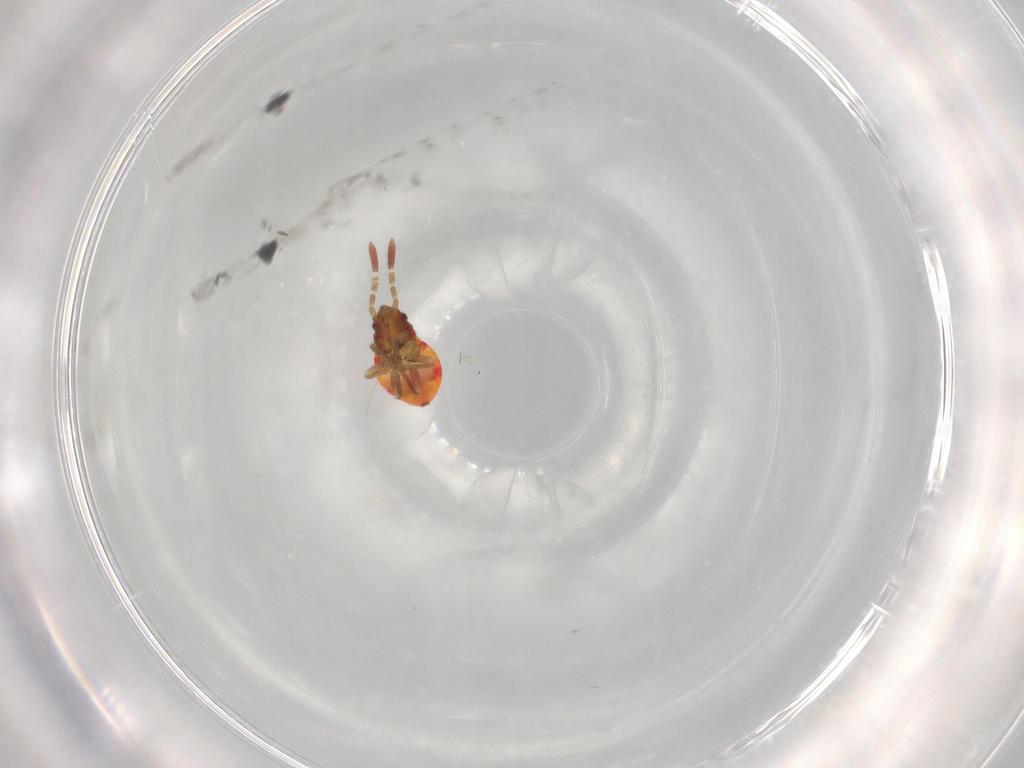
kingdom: Animalia
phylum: Arthropoda
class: Insecta
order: Hemiptera
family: Rhyparochromidae
